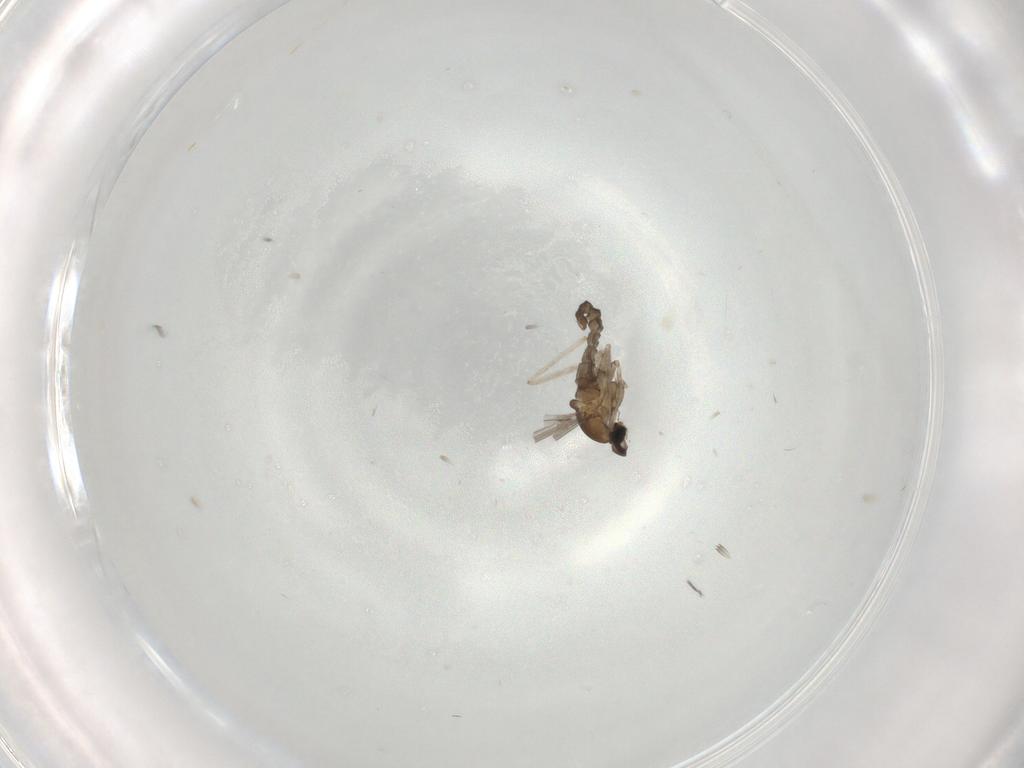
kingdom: Animalia
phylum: Arthropoda
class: Insecta
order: Diptera
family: Cecidomyiidae
